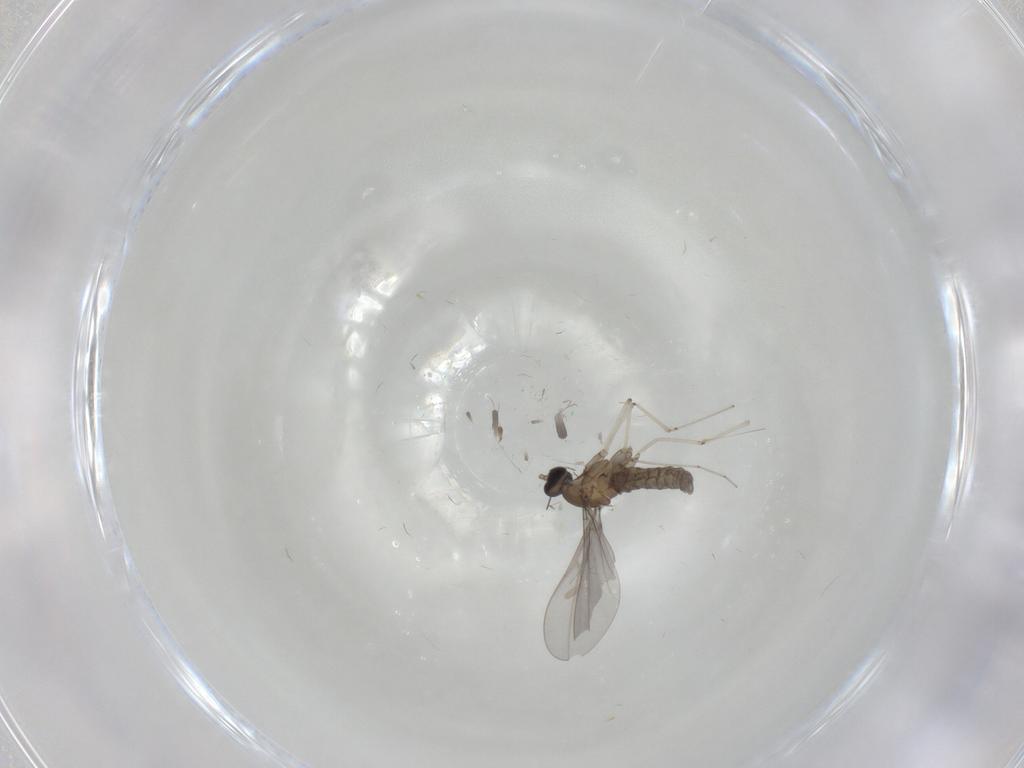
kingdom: Animalia
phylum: Arthropoda
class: Insecta
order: Diptera
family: Cecidomyiidae
